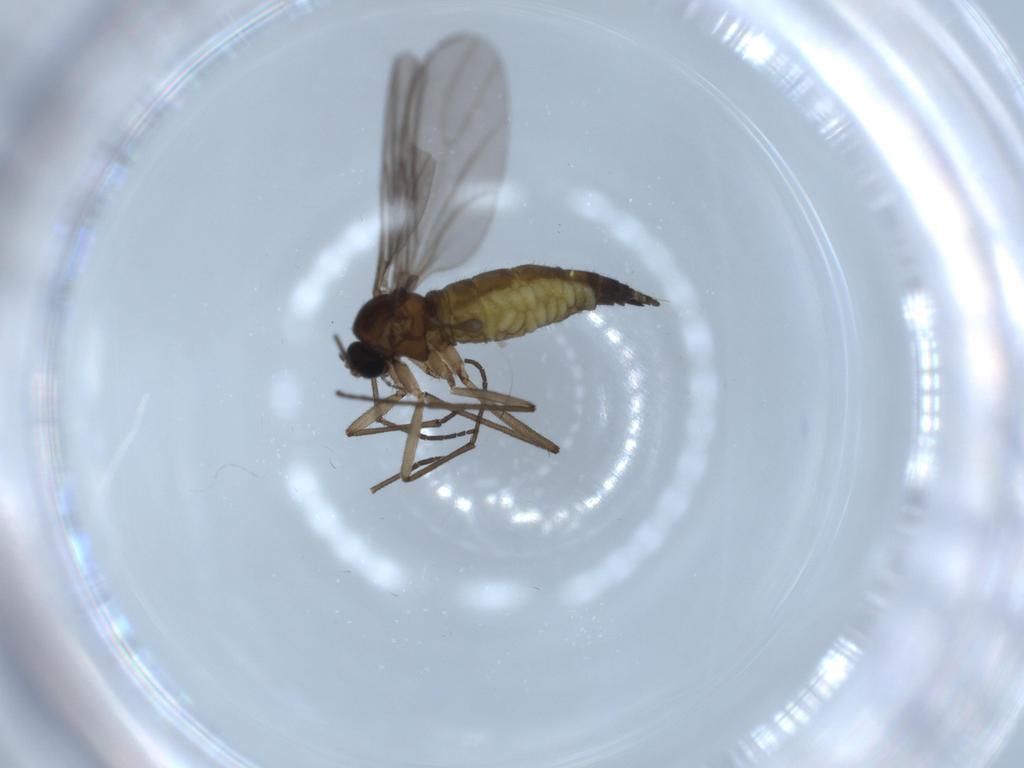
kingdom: Animalia
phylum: Arthropoda
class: Insecta
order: Diptera
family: Sciaridae
